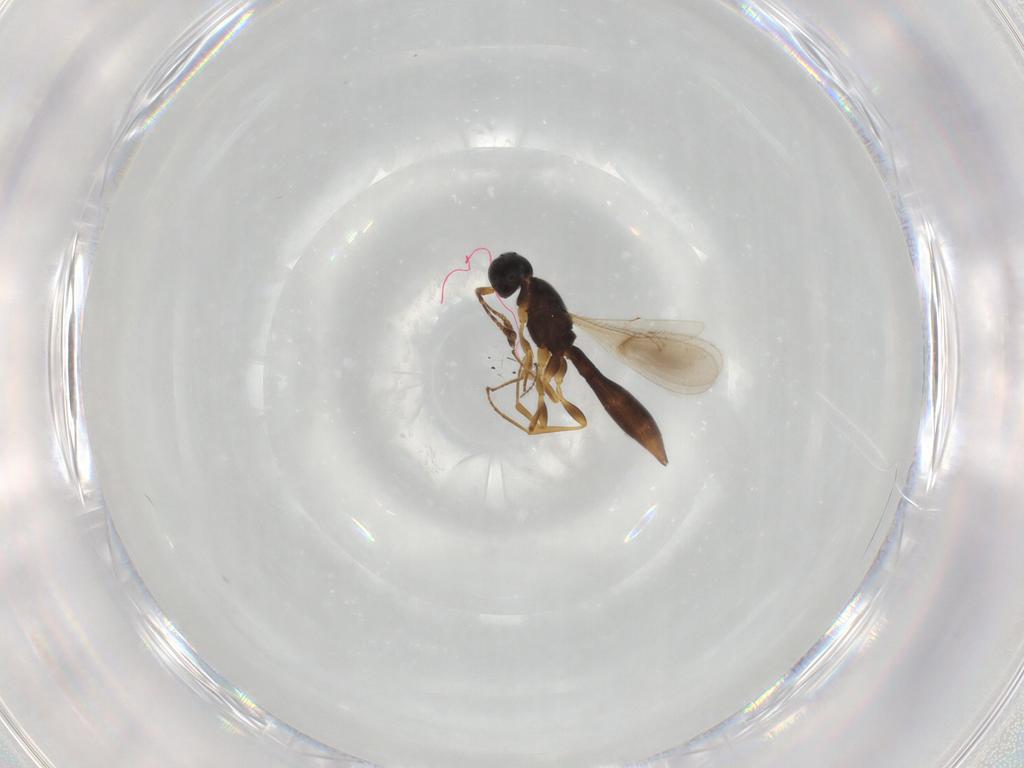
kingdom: Animalia
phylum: Arthropoda
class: Insecta
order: Hymenoptera
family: Scelionidae
